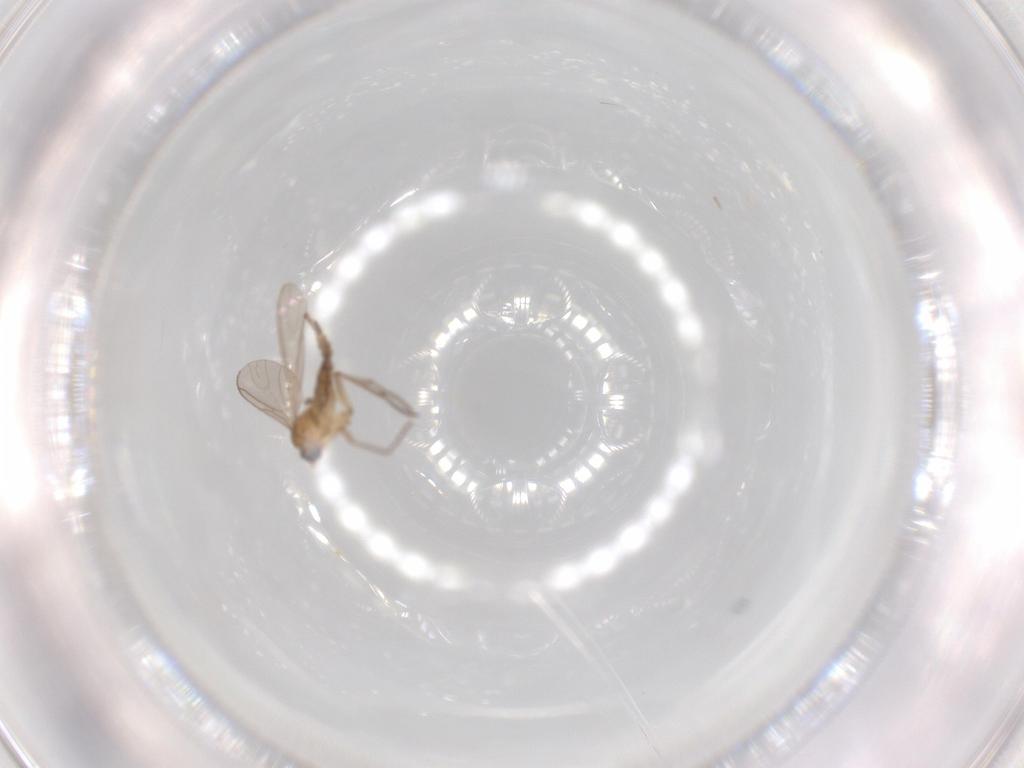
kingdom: Animalia
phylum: Arthropoda
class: Insecta
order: Diptera
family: Sciaridae
